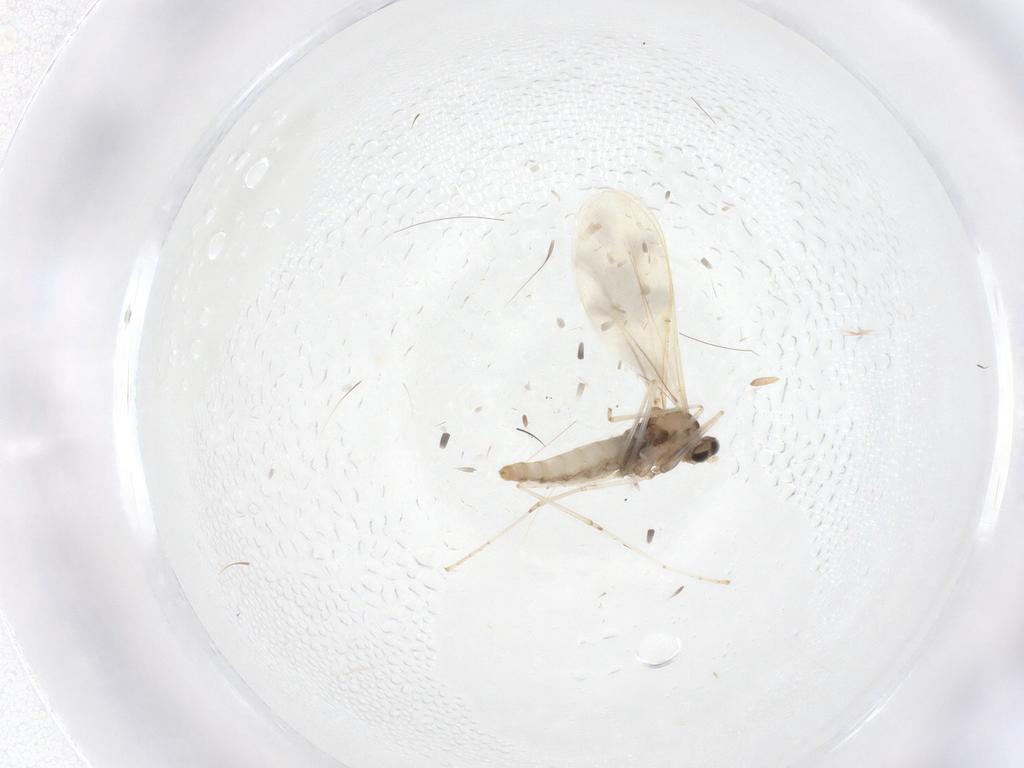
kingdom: Animalia
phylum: Arthropoda
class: Insecta
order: Diptera
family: Cecidomyiidae
